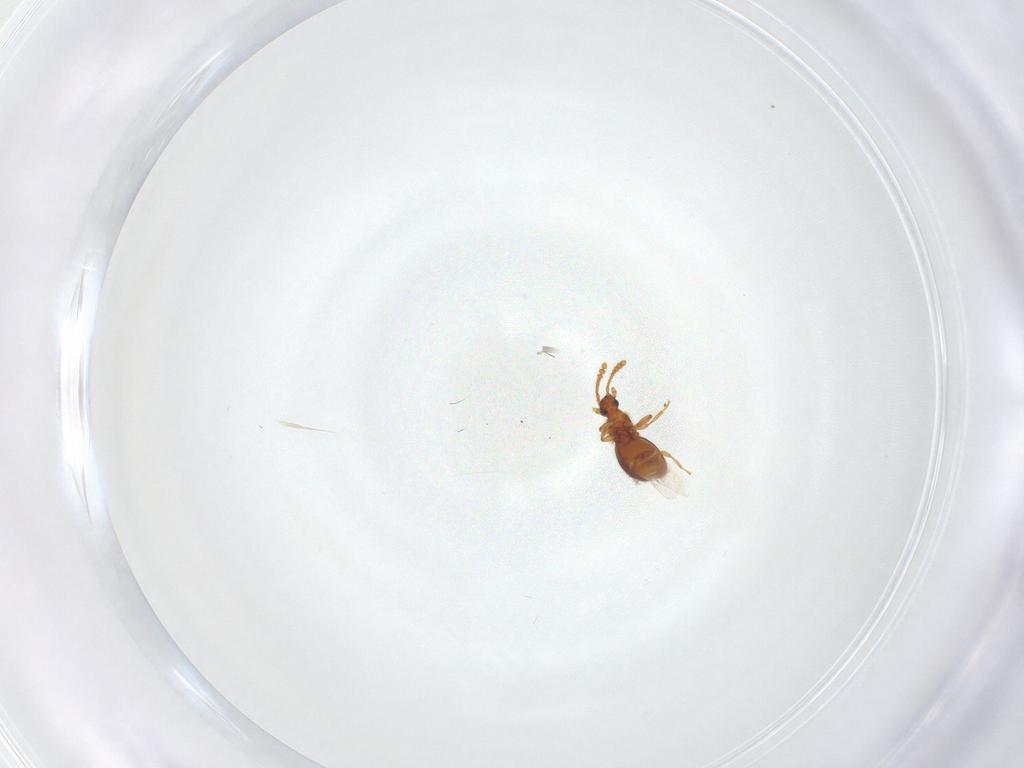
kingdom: Animalia
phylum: Arthropoda
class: Insecta
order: Coleoptera
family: Staphylinidae
